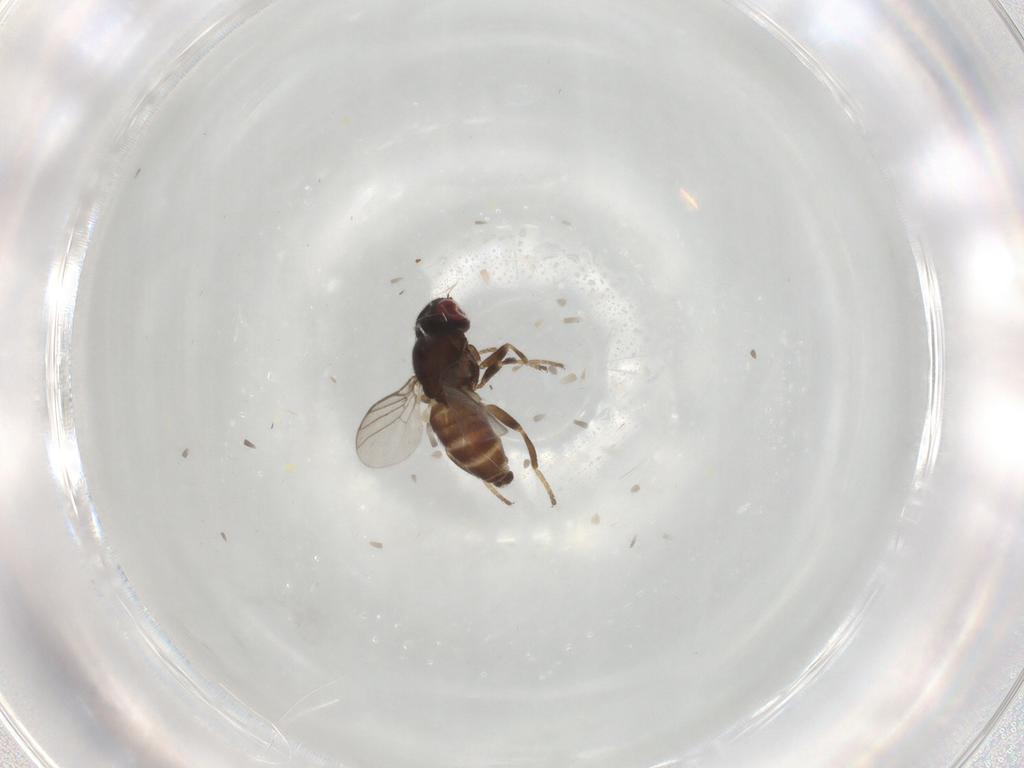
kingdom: Animalia
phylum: Arthropoda
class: Insecta
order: Diptera
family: Chloropidae
